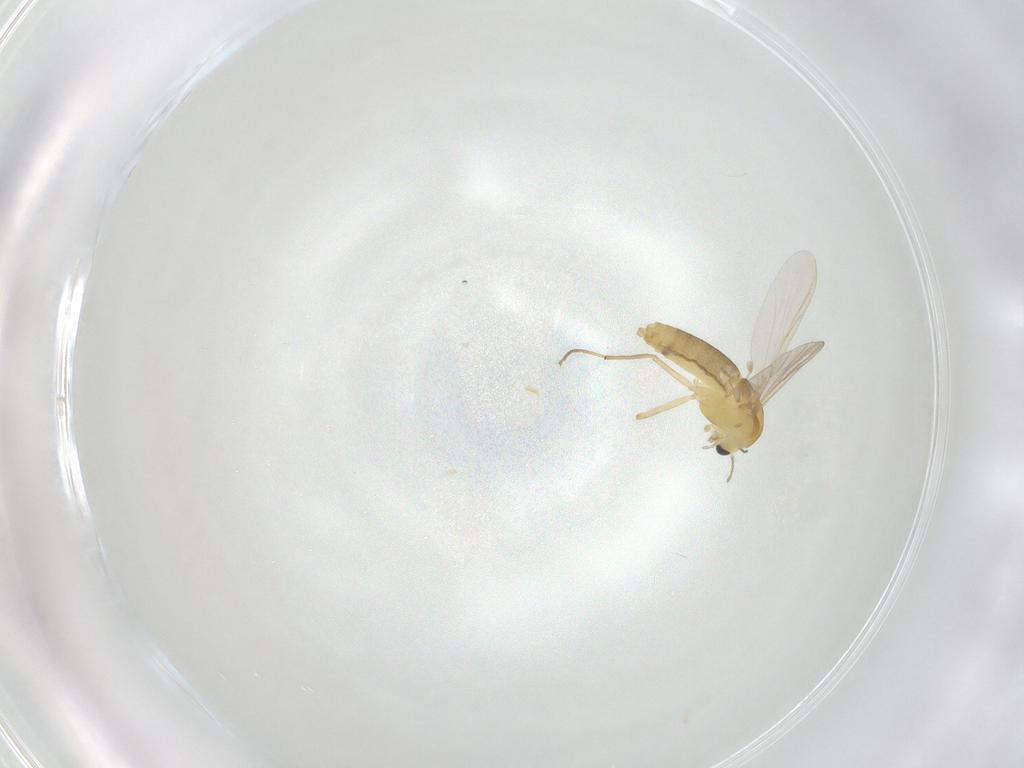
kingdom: Animalia
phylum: Arthropoda
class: Insecta
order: Diptera
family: Chironomidae
